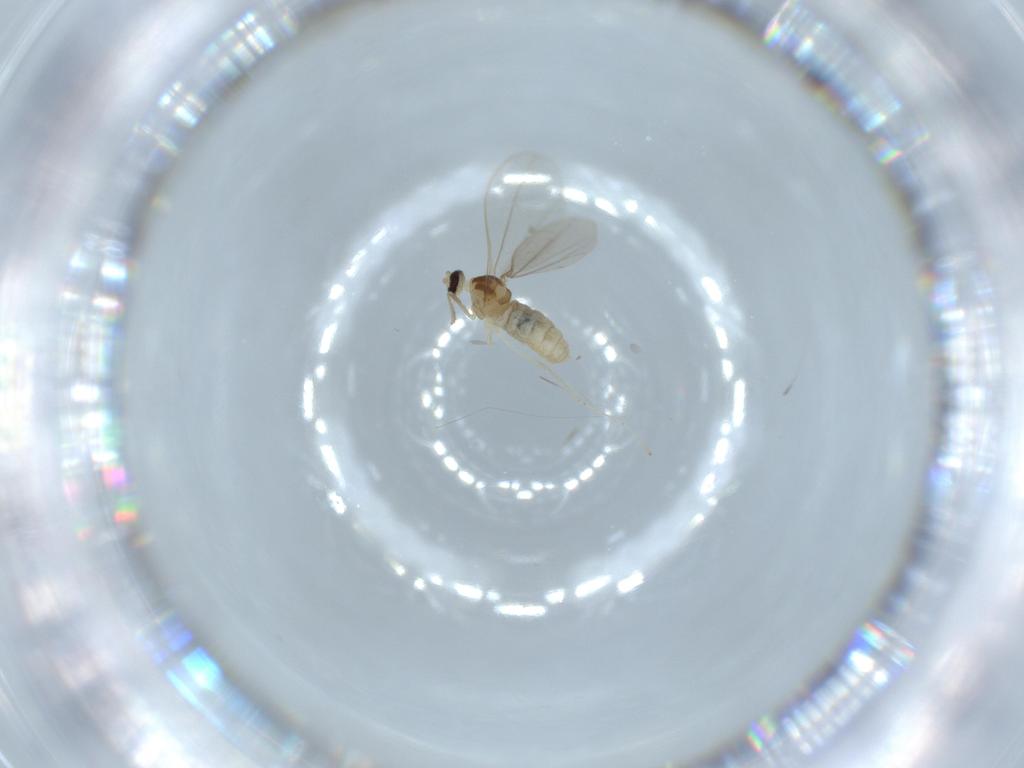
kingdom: Animalia
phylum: Arthropoda
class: Insecta
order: Diptera
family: Cecidomyiidae
